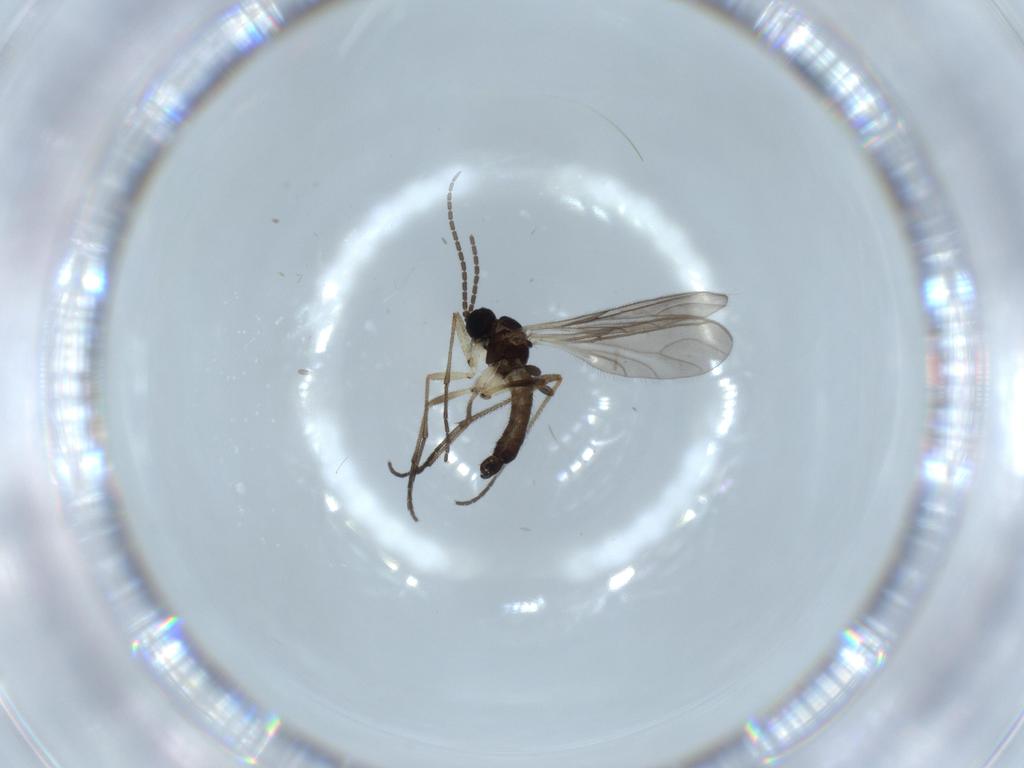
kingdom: Animalia
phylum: Arthropoda
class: Insecta
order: Diptera
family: Sciaridae
